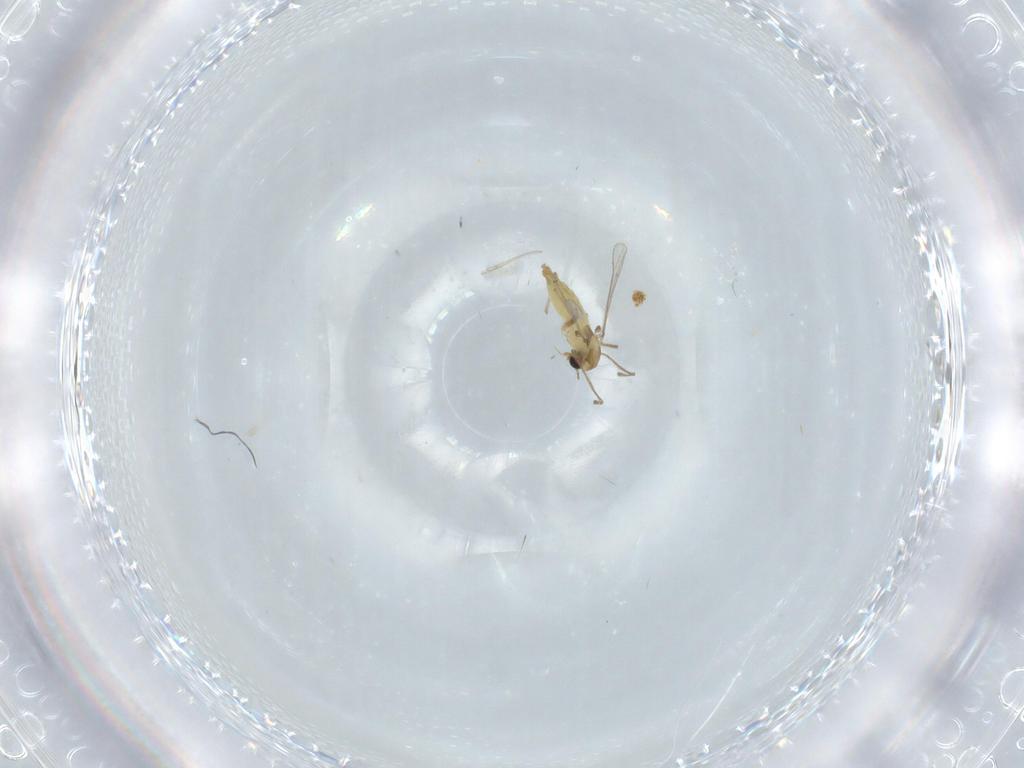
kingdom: Animalia
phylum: Arthropoda
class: Insecta
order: Diptera
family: Chironomidae
